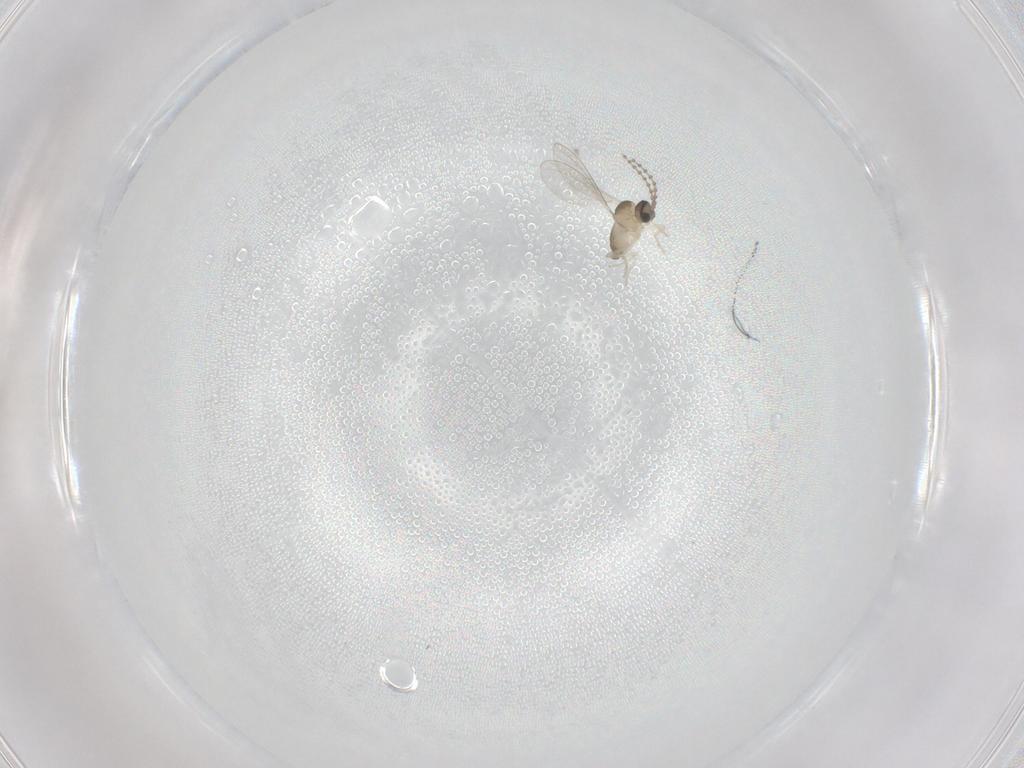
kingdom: Animalia
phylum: Arthropoda
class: Insecta
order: Diptera
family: Cecidomyiidae
